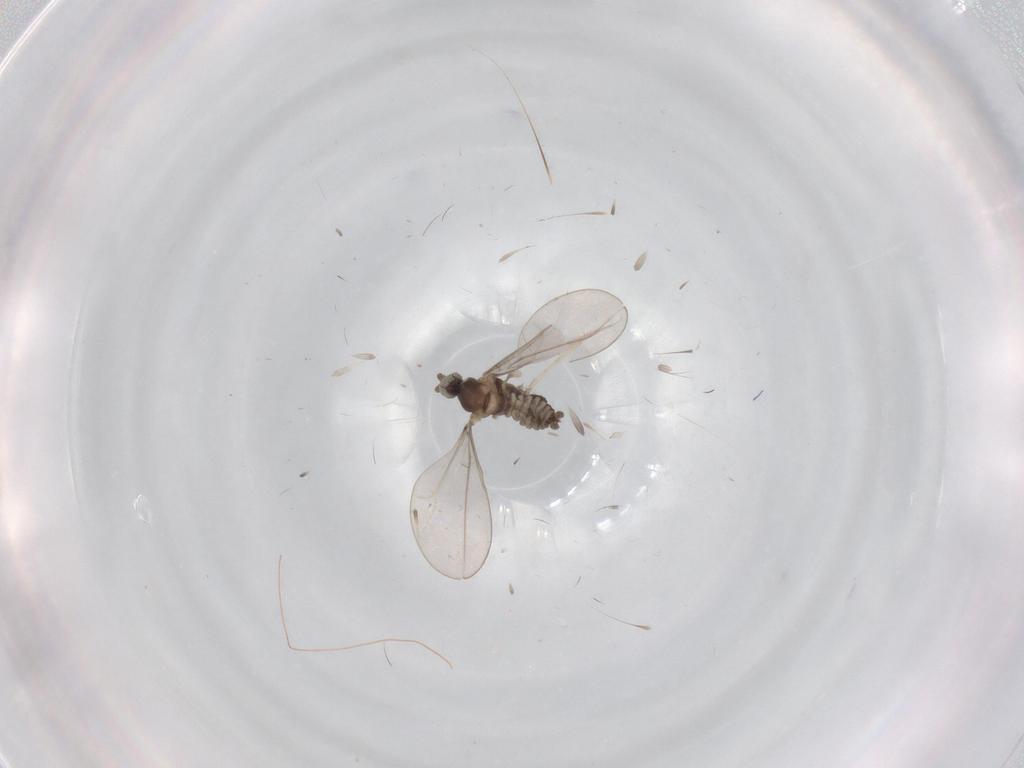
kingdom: Animalia
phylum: Arthropoda
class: Insecta
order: Diptera
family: Cecidomyiidae
